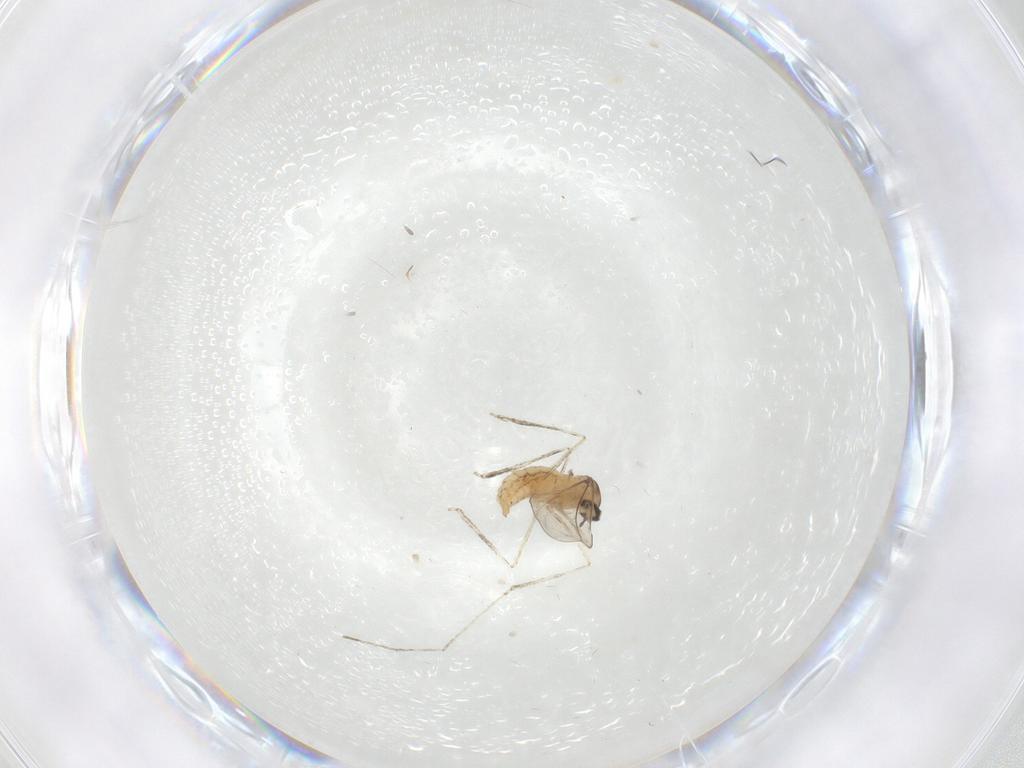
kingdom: Animalia
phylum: Arthropoda
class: Insecta
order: Diptera
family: Cecidomyiidae
